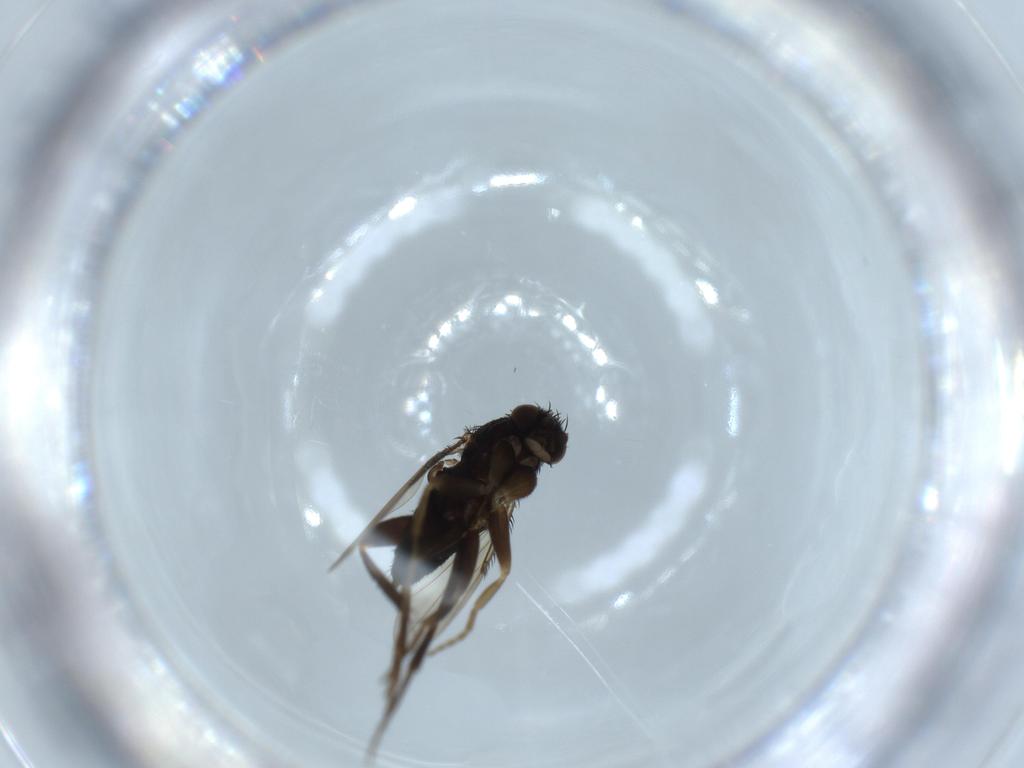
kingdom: Animalia
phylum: Arthropoda
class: Insecta
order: Diptera
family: Phoridae
